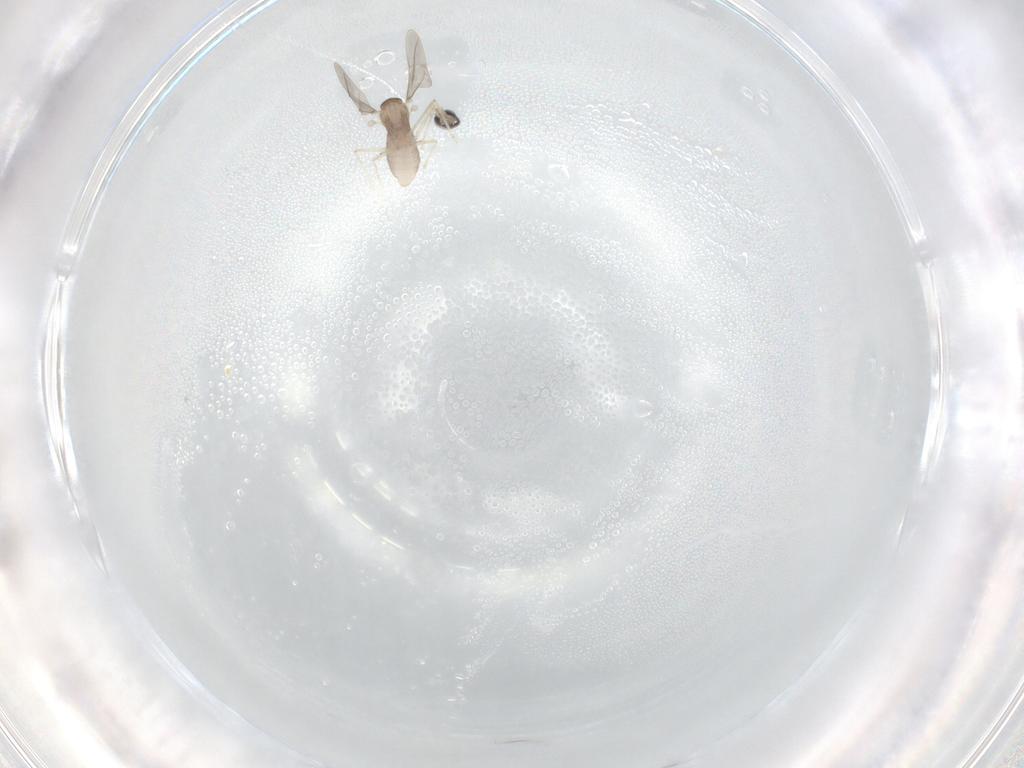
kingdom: Animalia
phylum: Arthropoda
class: Insecta
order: Diptera
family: Cecidomyiidae
